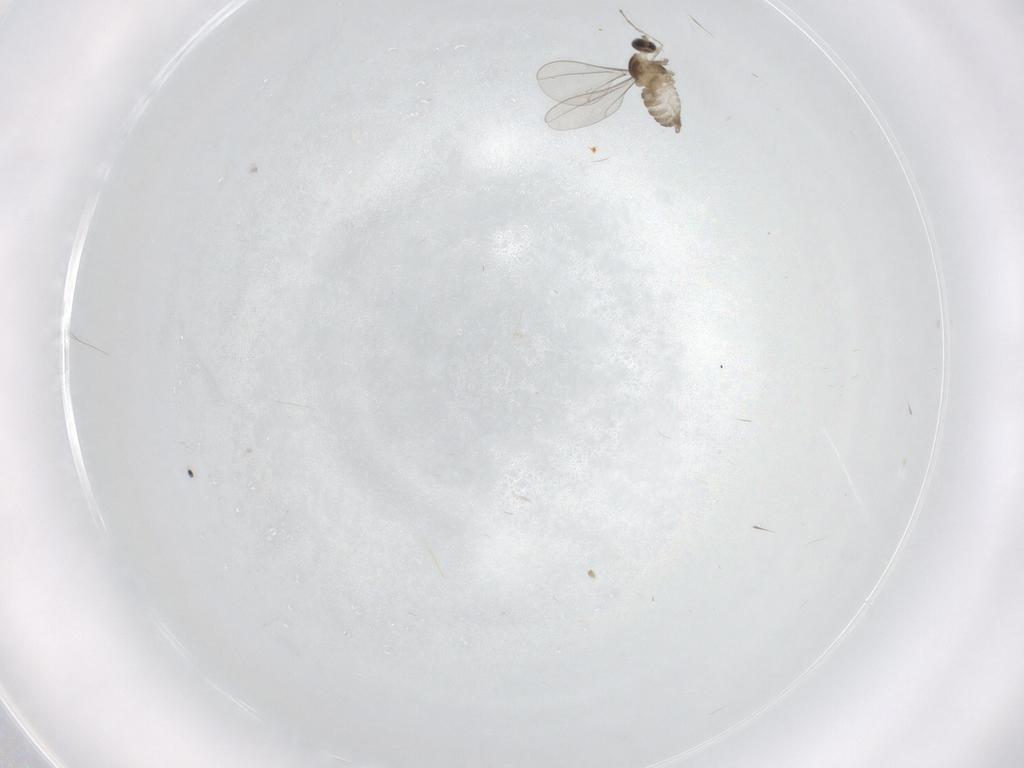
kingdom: Animalia
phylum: Arthropoda
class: Insecta
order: Diptera
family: Cecidomyiidae
